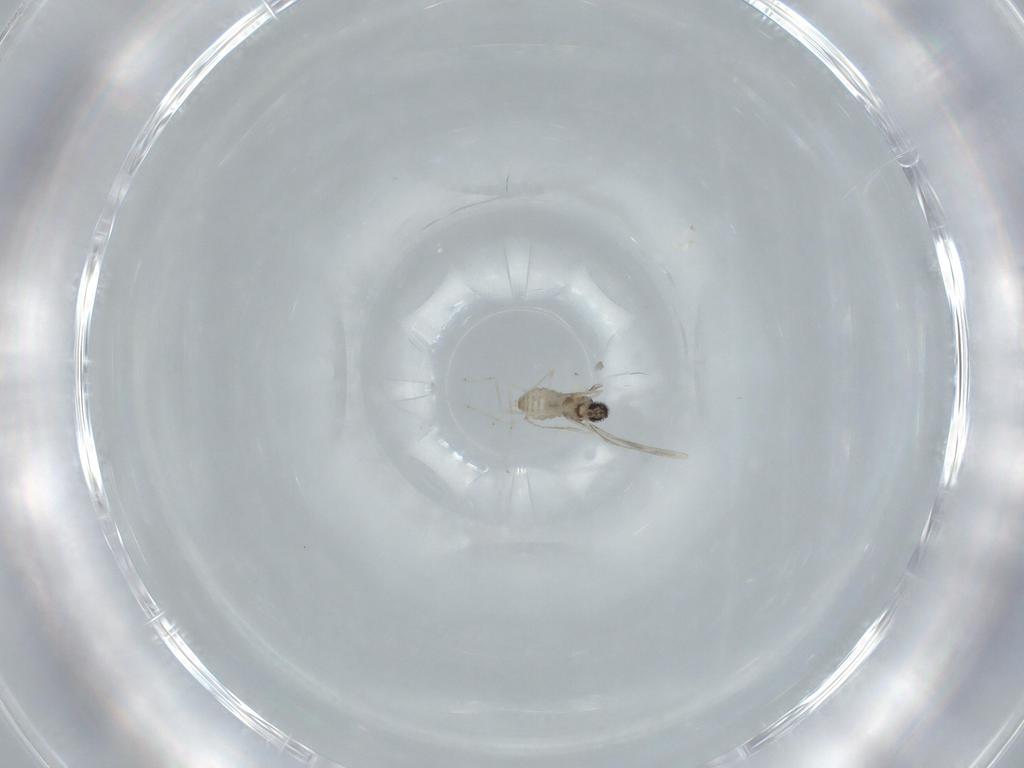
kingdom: Animalia
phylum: Arthropoda
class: Insecta
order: Diptera
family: Cecidomyiidae
